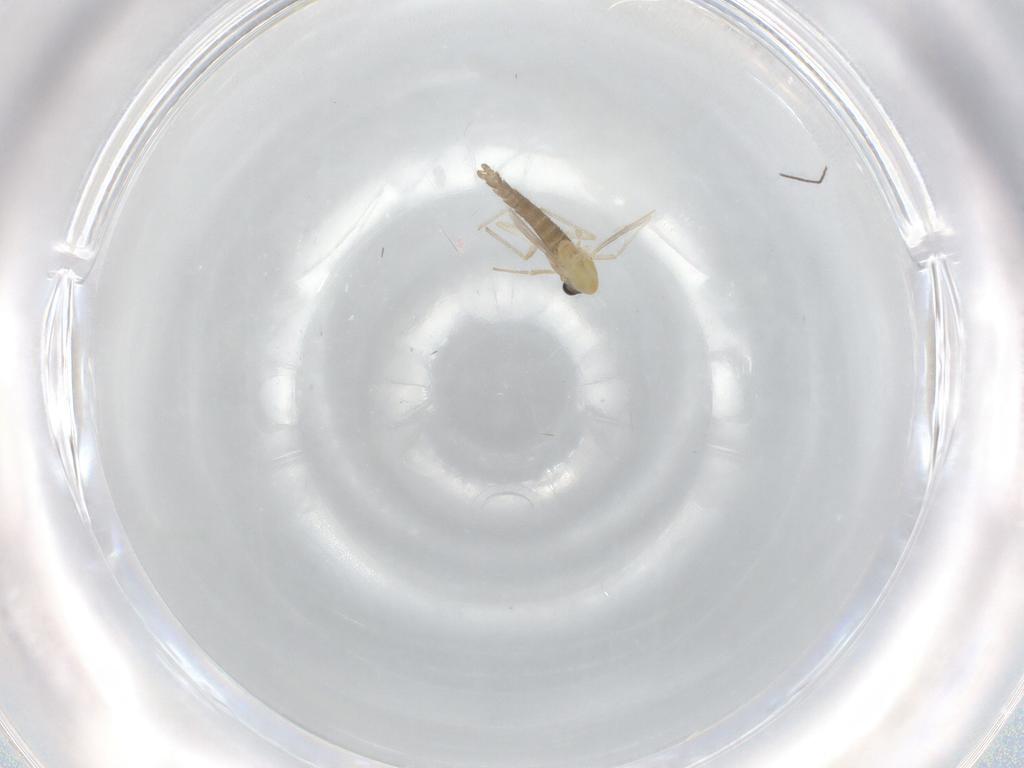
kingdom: Animalia
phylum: Arthropoda
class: Insecta
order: Diptera
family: Chironomidae
